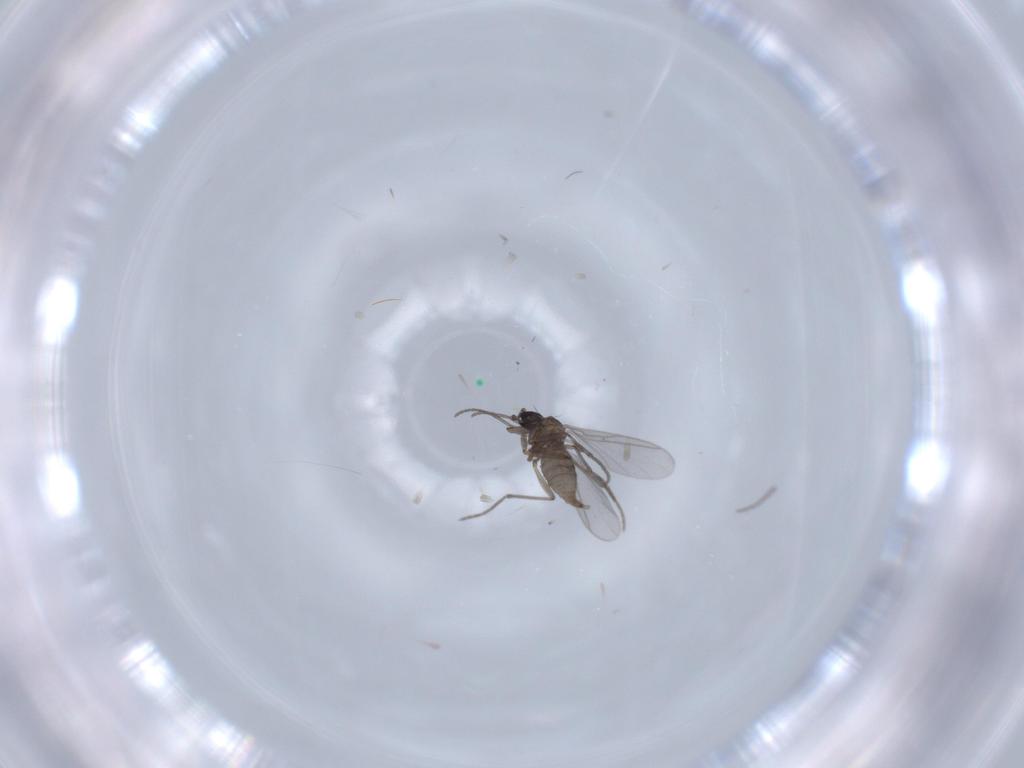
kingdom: Animalia
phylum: Arthropoda
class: Insecta
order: Diptera
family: Sciaridae
